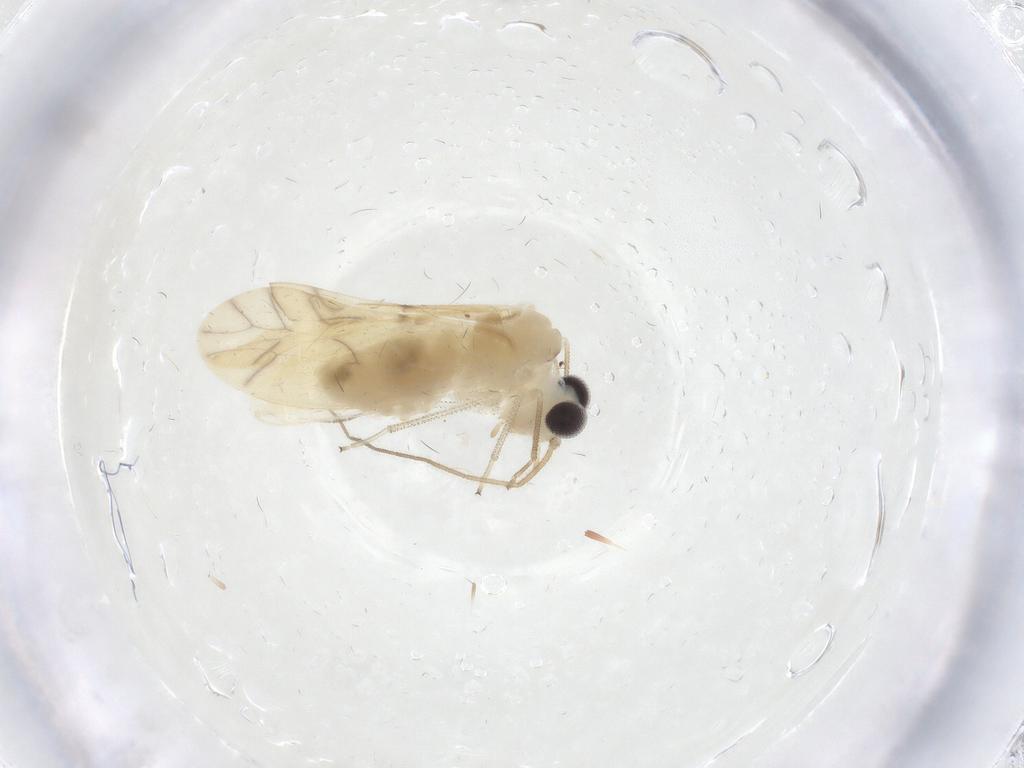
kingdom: Animalia
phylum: Arthropoda
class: Insecta
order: Psocodea
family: Caeciliusidae
